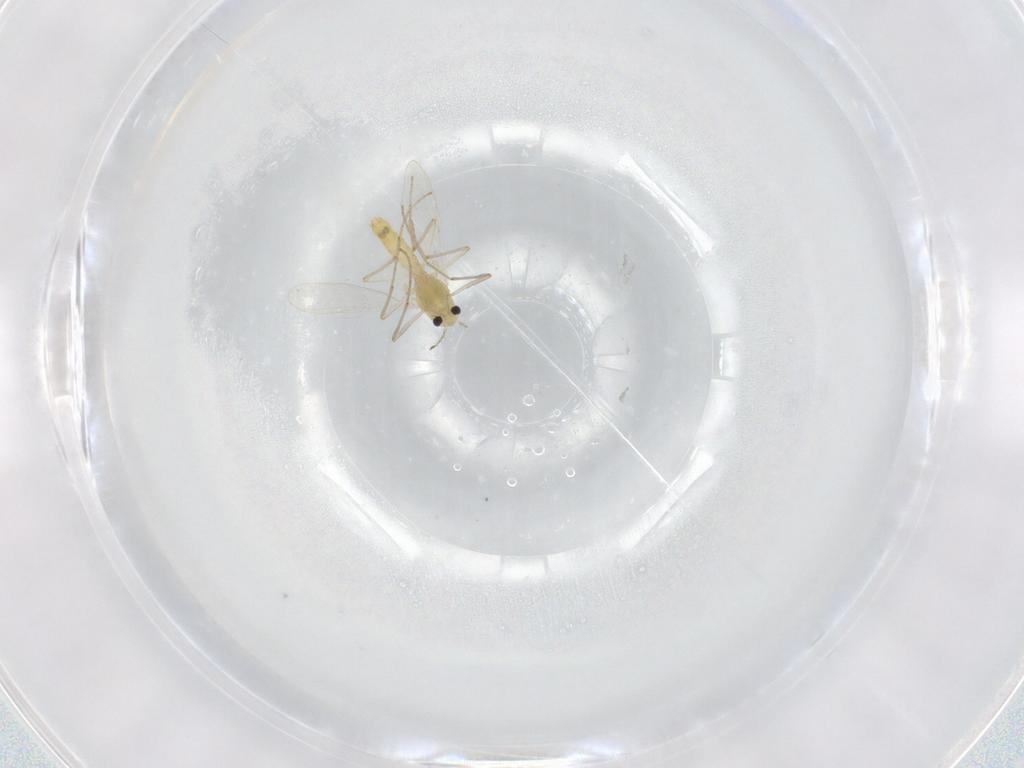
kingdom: Animalia
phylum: Arthropoda
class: Insecta
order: Diptera
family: Chironomidae
